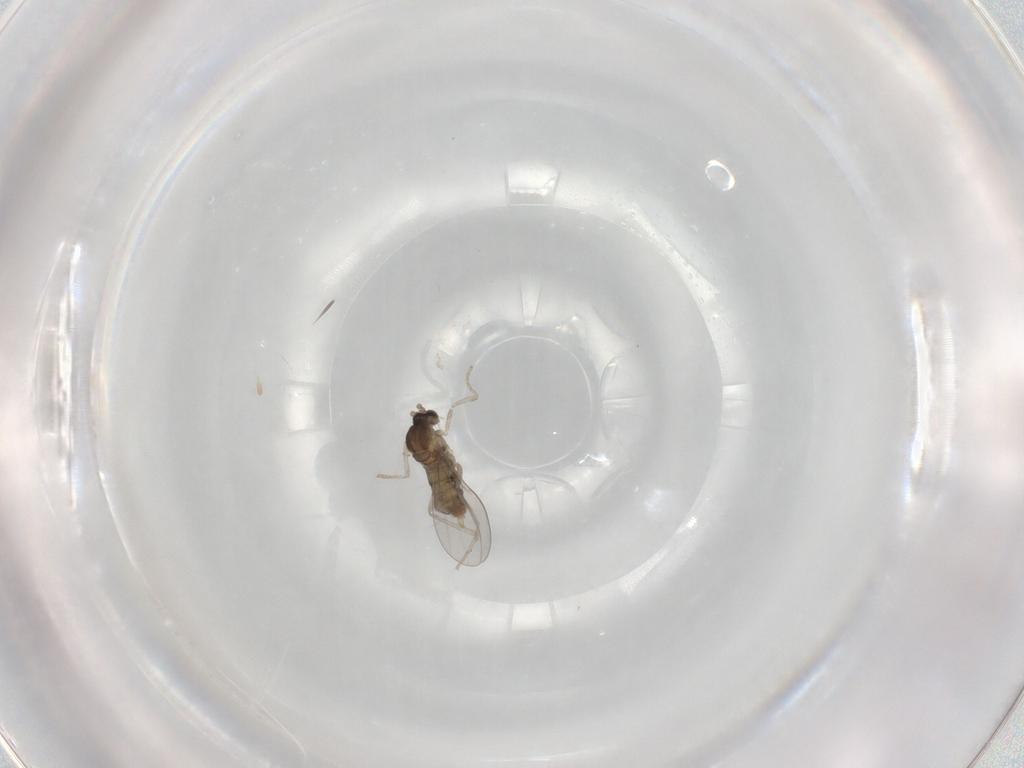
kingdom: Animalia
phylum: Arthropoda
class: Insecta
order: Diptera
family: Cecidomyiidae
